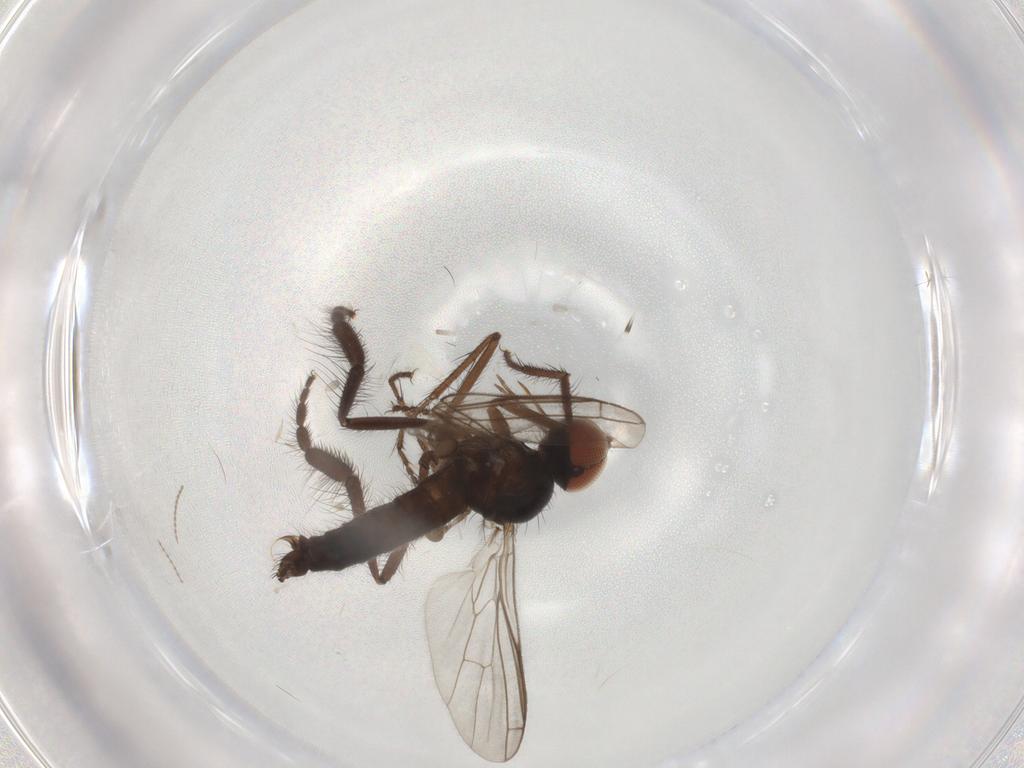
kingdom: Animalia
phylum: Arthropoda
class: Insecta
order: Diptera
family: Empididae
